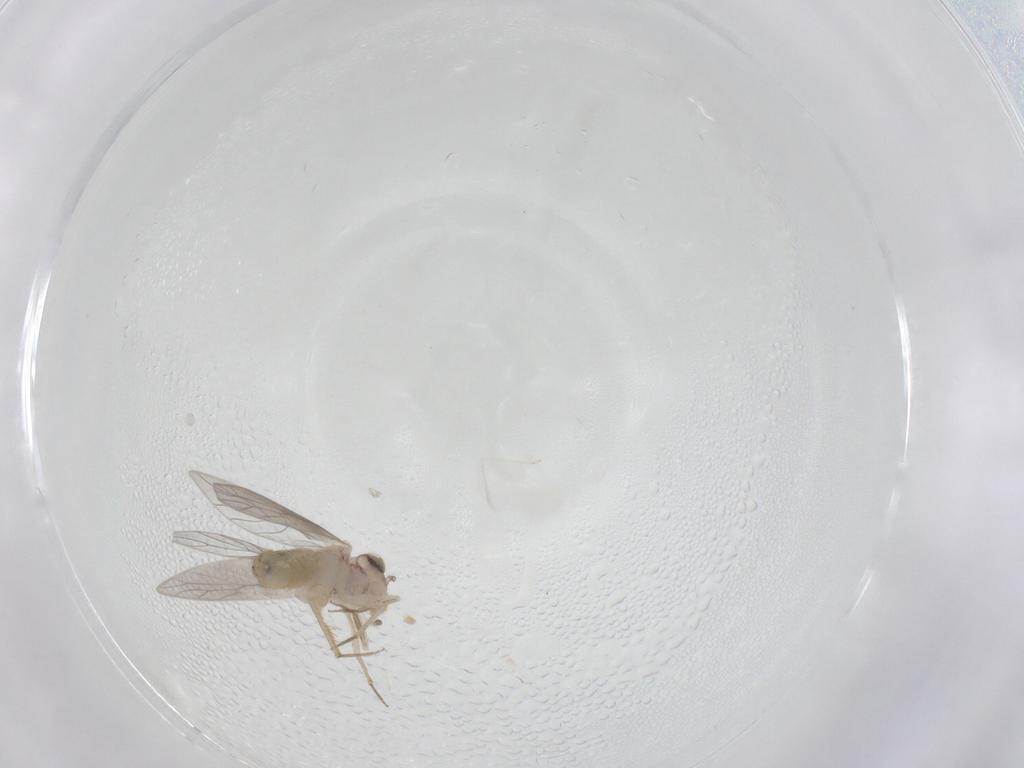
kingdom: Animalia
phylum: Arthropoda
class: Insecta
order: Psocodea
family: Lepidopsocidae
